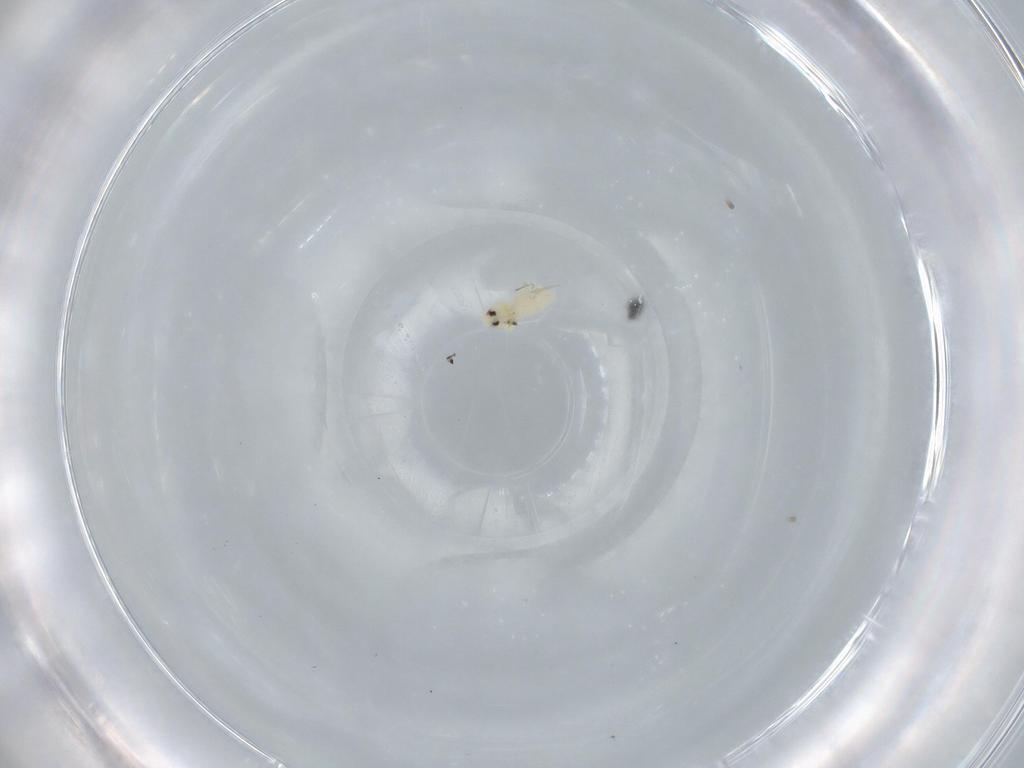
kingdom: Animalia
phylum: Arthropoda
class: Insecta
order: Hemiptera
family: Aleyrodidae
